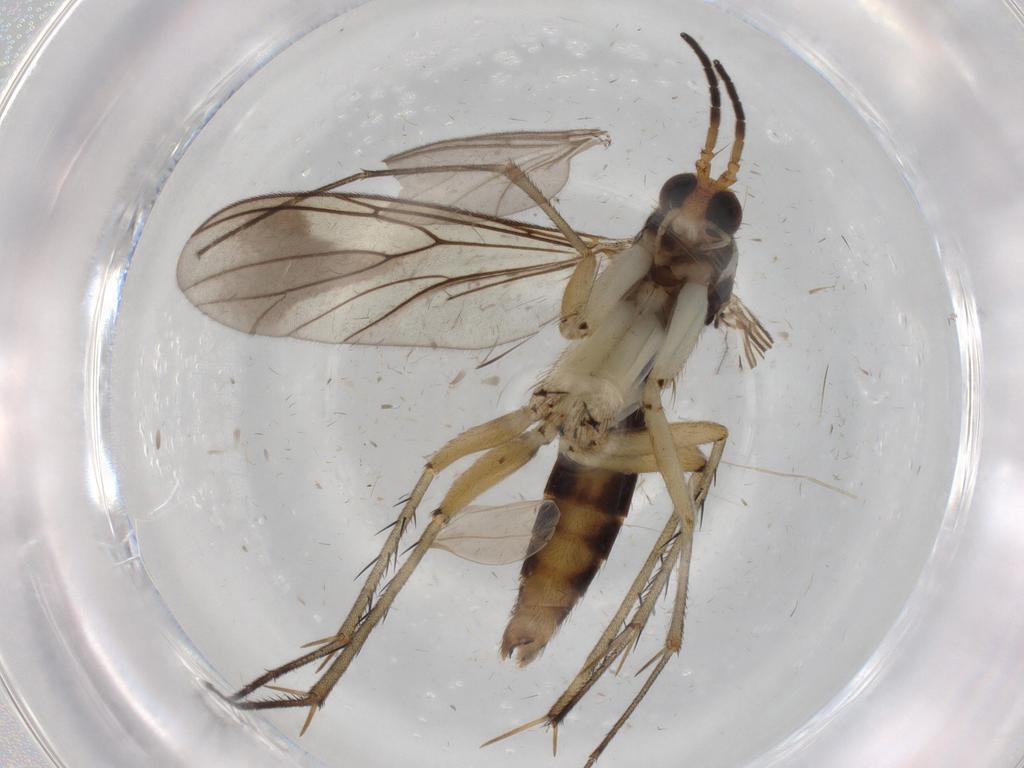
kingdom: Animalia
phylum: Arthropoda
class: Insecta
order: Diptera
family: Mycetophilidae
